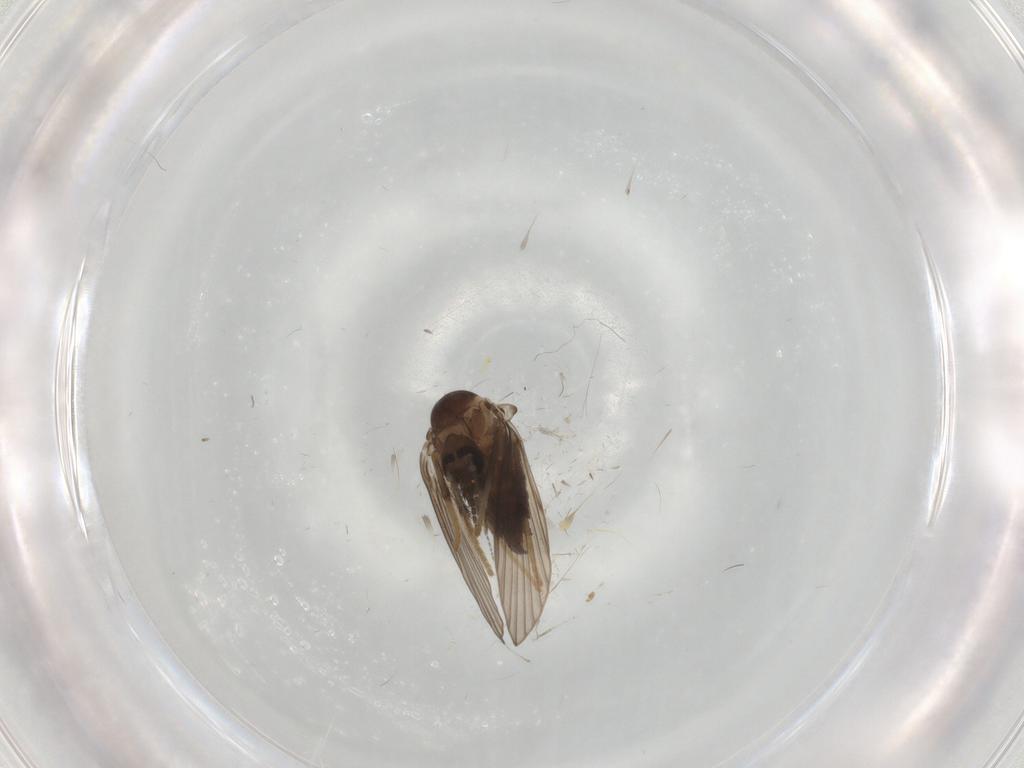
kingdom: Animalia
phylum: Arthropoda
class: Insecta
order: Diptera
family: Psychodidae
